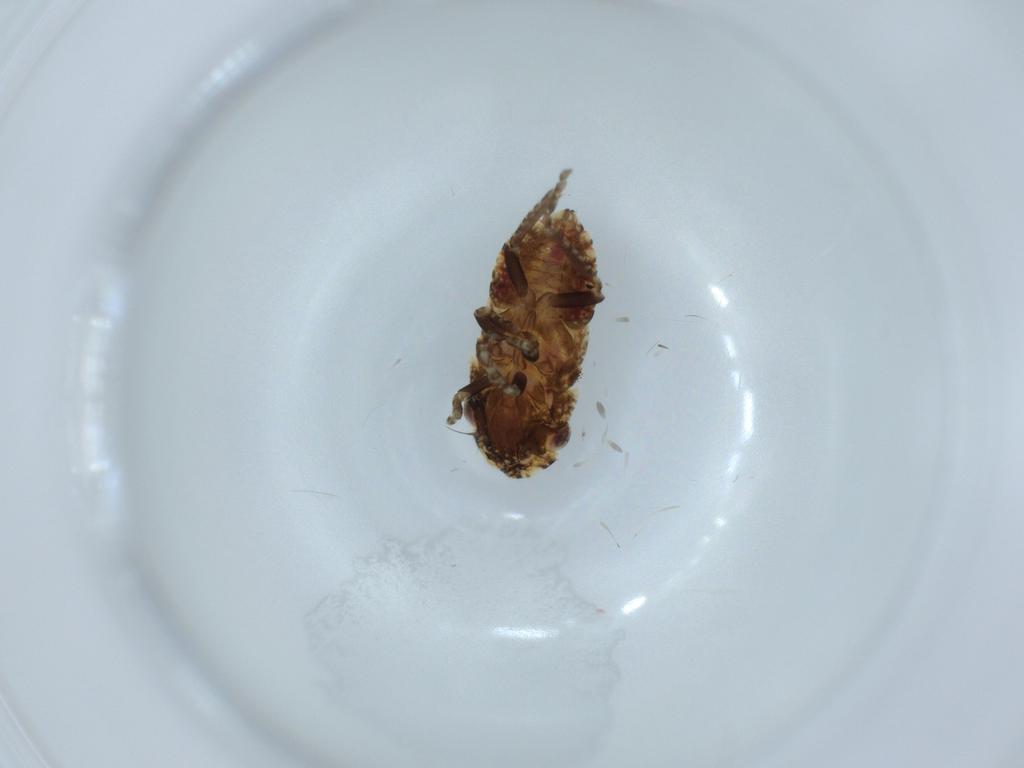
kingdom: Animalia
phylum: Arthropoda
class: Insecta
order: Hemiptera
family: Cicadellidae
